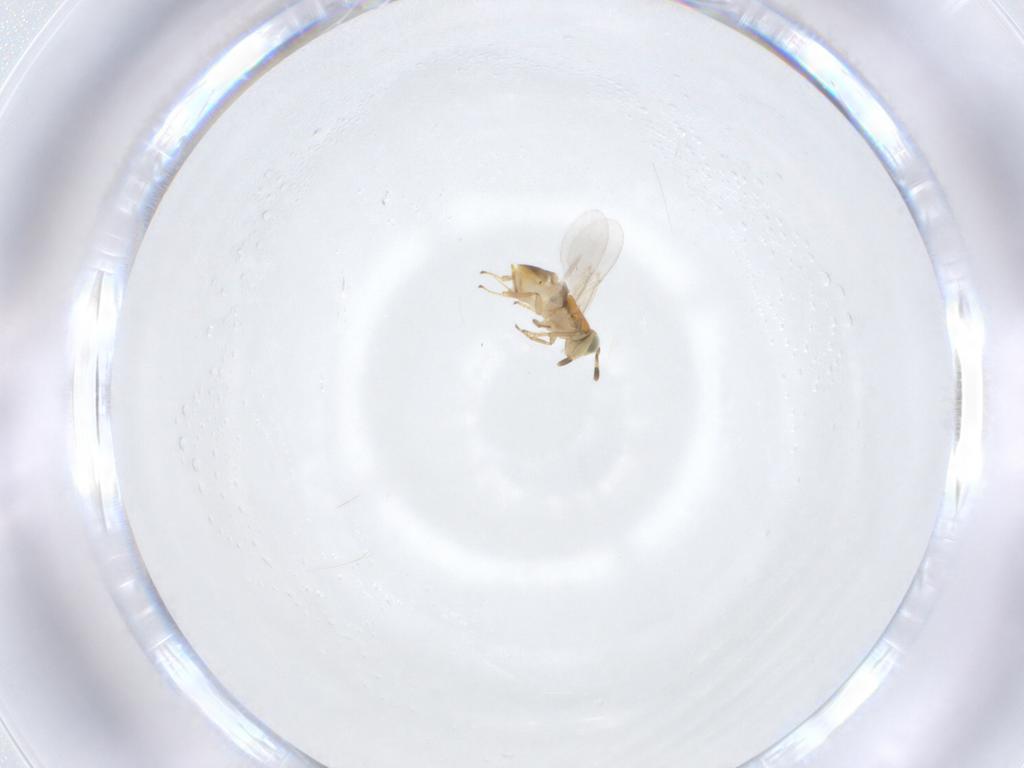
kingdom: Animalia
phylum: Arthropoda
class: Insecta
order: Hymenoptera
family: Encyrtidae
